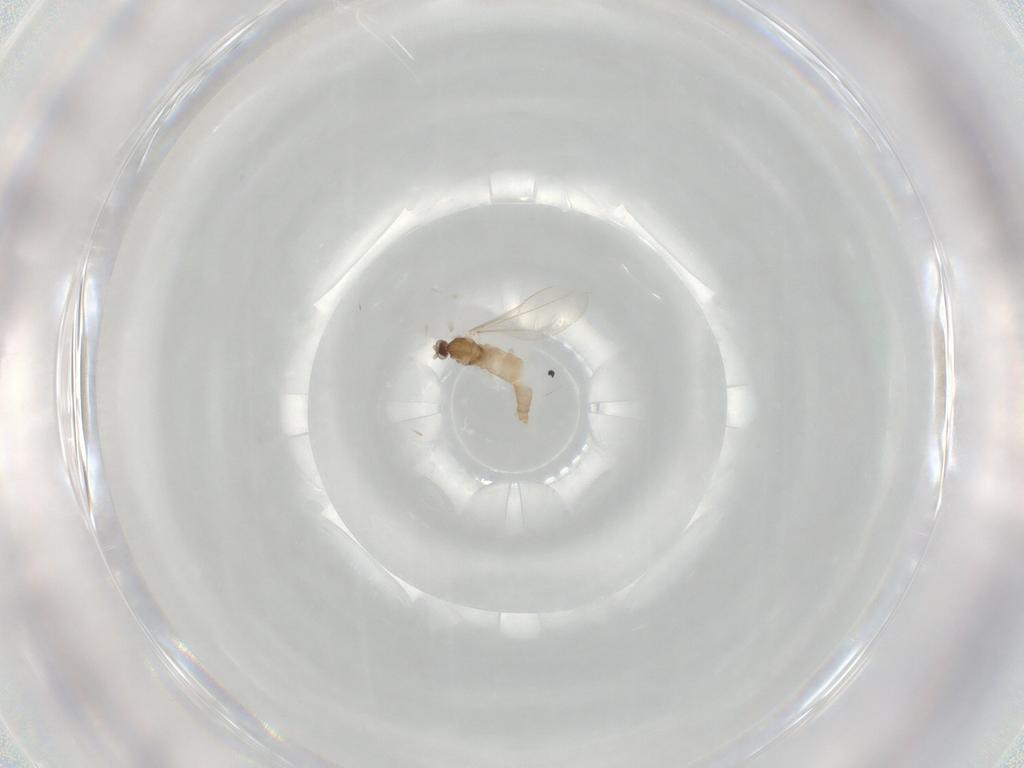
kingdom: Animalia
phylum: Arthropoda
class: Insecta
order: Diptera
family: Cecidomyiidae
